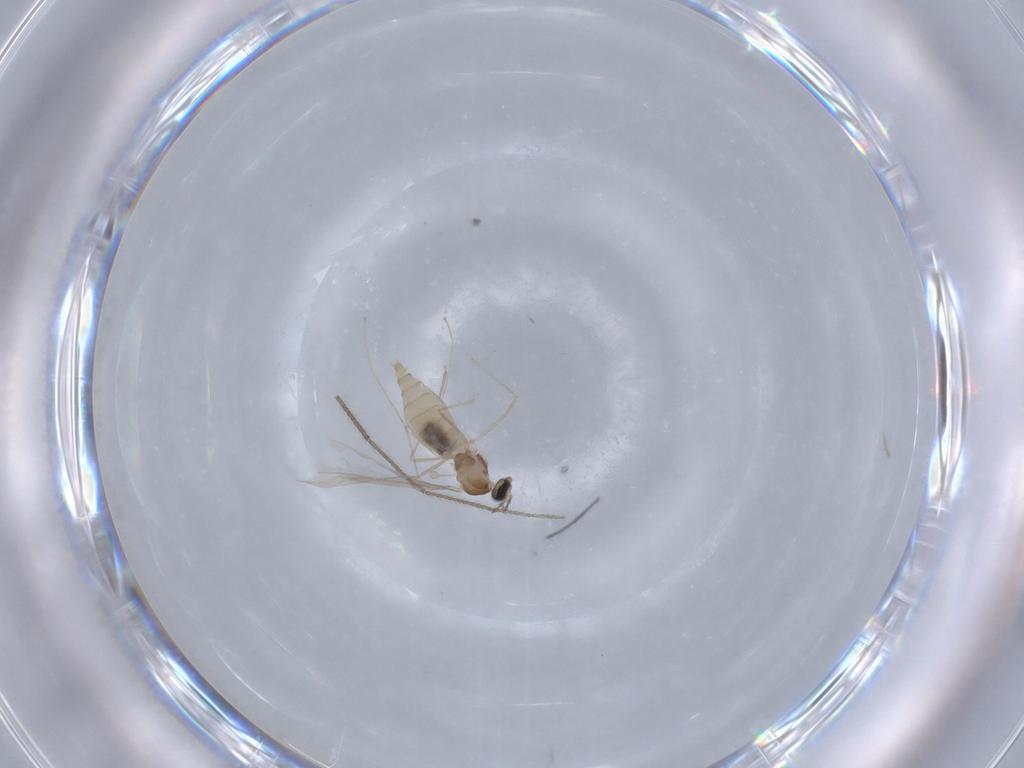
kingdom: Animalia
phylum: Arthropoda
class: Insecta
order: Diptera
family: Cecidomyiidae
